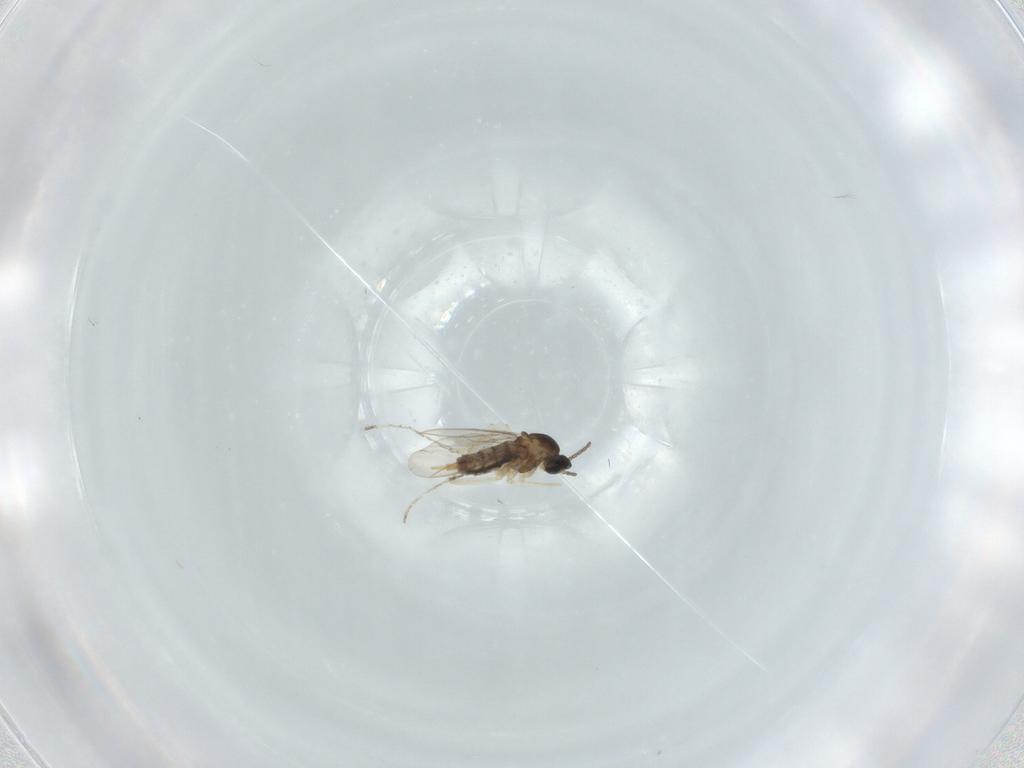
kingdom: Animalia
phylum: Arthropoda
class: Insecta
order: Diptera
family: Cecidomyiidae
